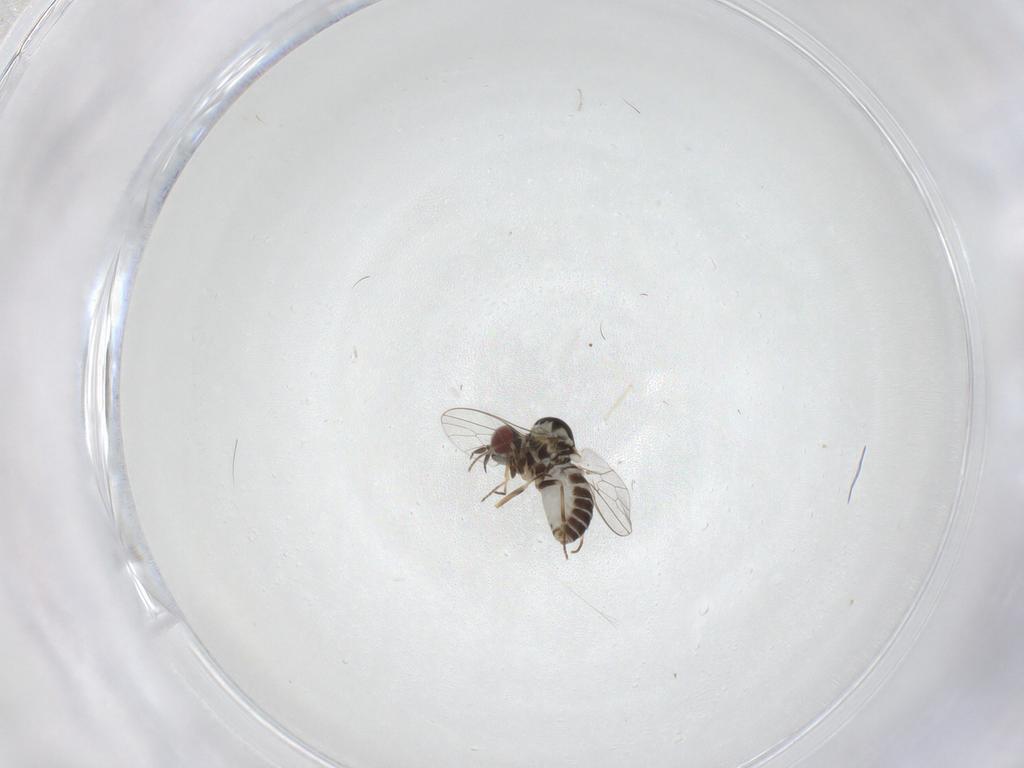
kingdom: Animalia
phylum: Arthropoda
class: Insecta
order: Diptera
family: Mythicomyiidae
